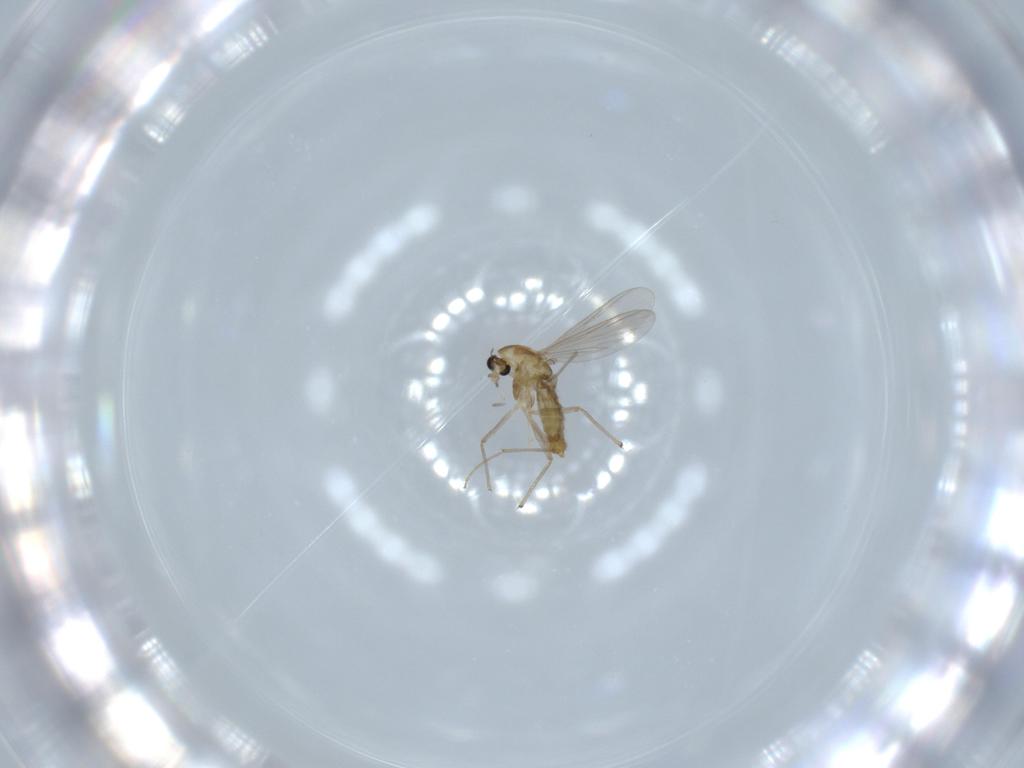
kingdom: Animalia
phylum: Arthropoda
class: Insecta
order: Diptera
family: Chironomidae
